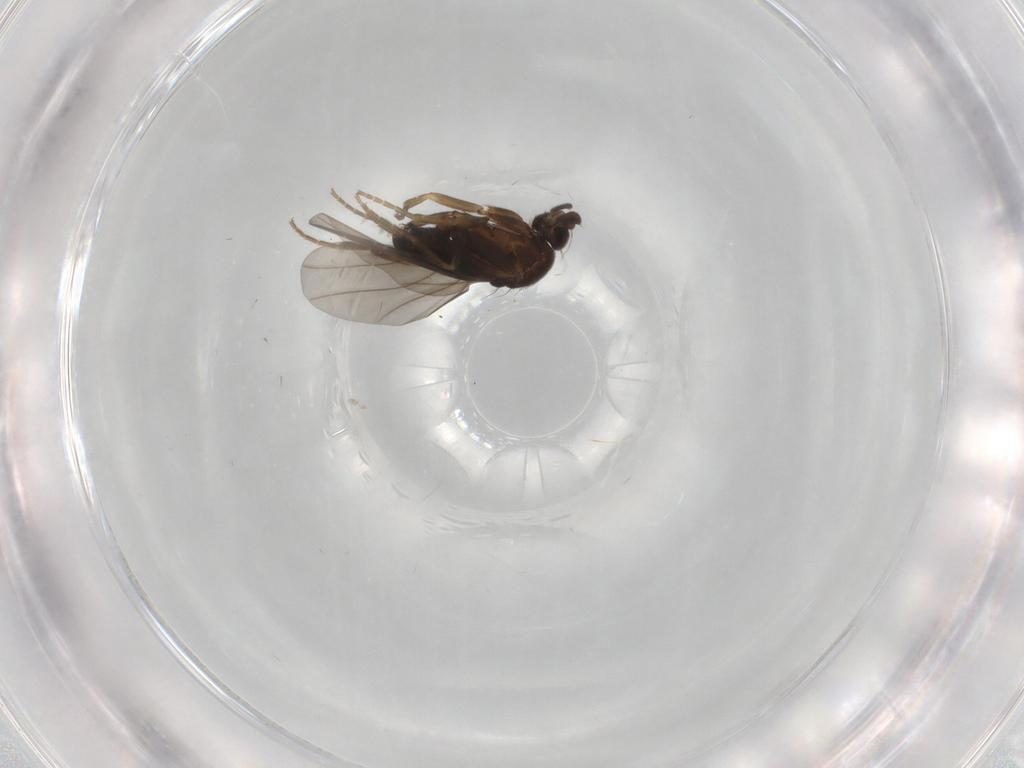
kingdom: Animalia
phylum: Arthropoda
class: Insecta
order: Diptera
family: Phoridae
